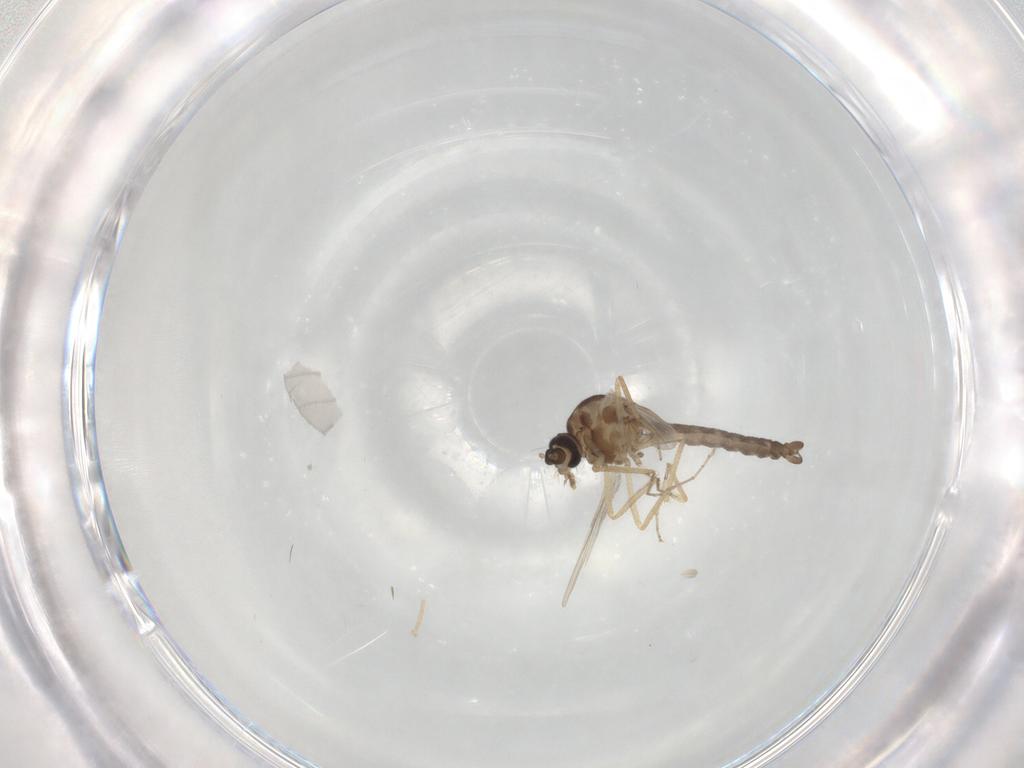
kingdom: Animalia
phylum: Arthropoda
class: Insecta
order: Diptera
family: Ceratopogonidae
